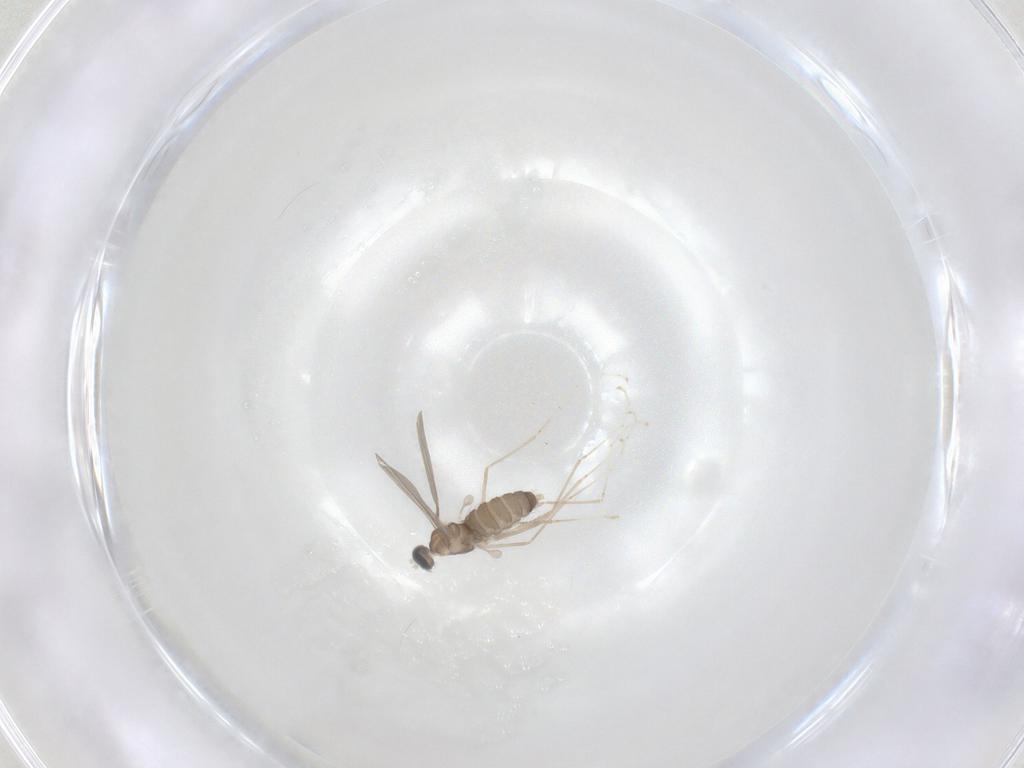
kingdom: Animalia
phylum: Arthropoda
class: Insecta
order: Diptera
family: Cecidomyiidae
